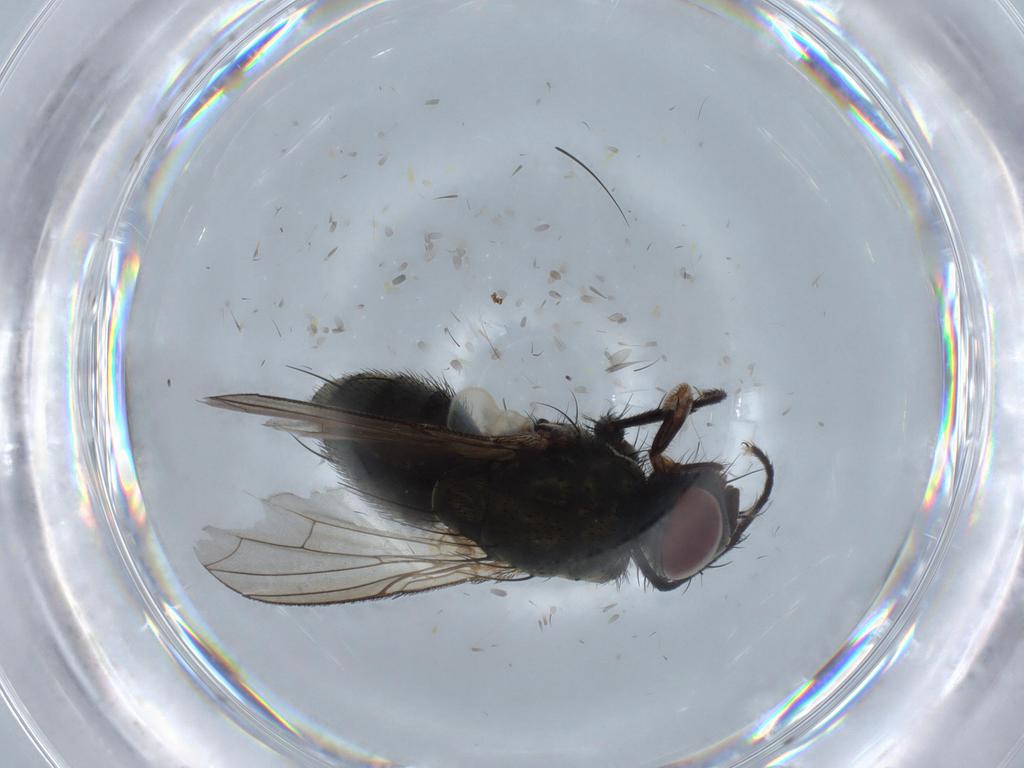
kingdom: Animalia
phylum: Arthropoda
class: Insecta
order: Diptera
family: Sarcophagidae
